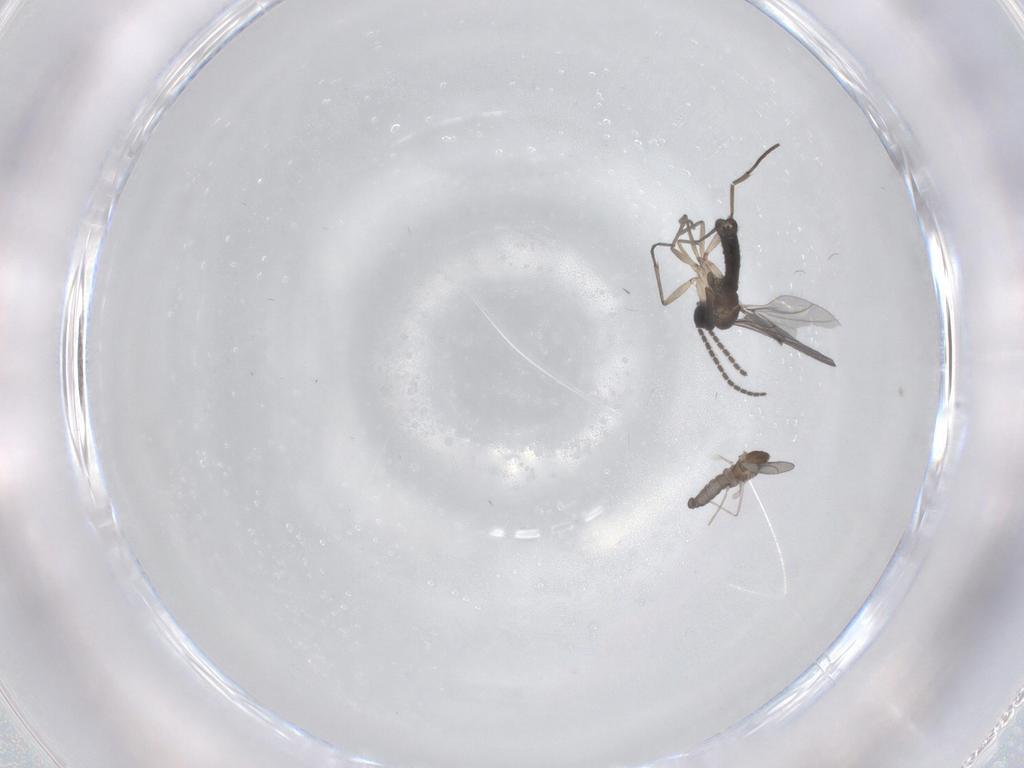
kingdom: Animalia
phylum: Arthropoda
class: Insecta
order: Diptera
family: Cecidomyiidae
